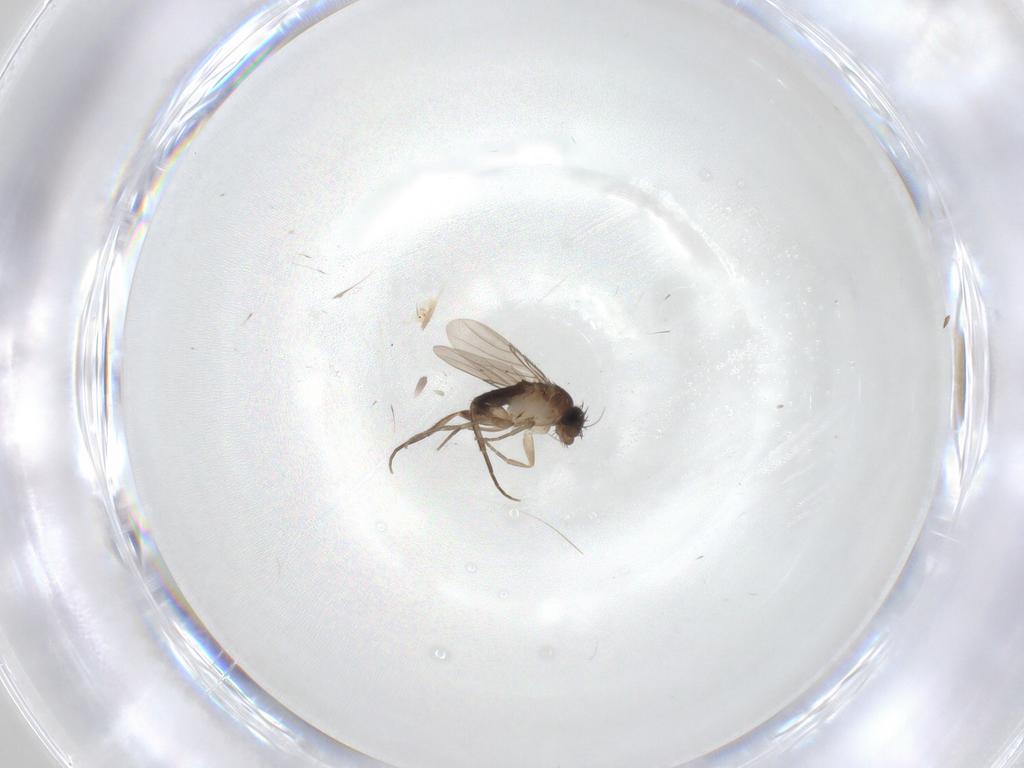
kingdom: Animalia
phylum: Arthropoda
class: Insecta
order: Diptera
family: Phoridae
